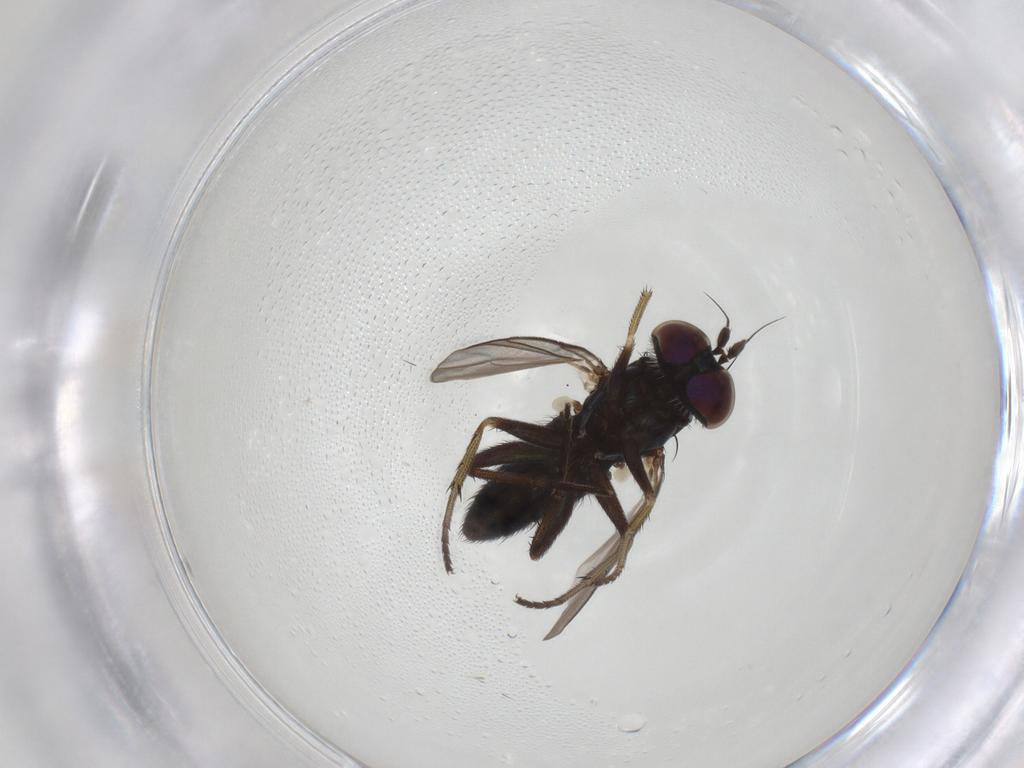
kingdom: Animalia
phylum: Arthropoda
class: Insecta
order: Diptera
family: Dolichopodidae
